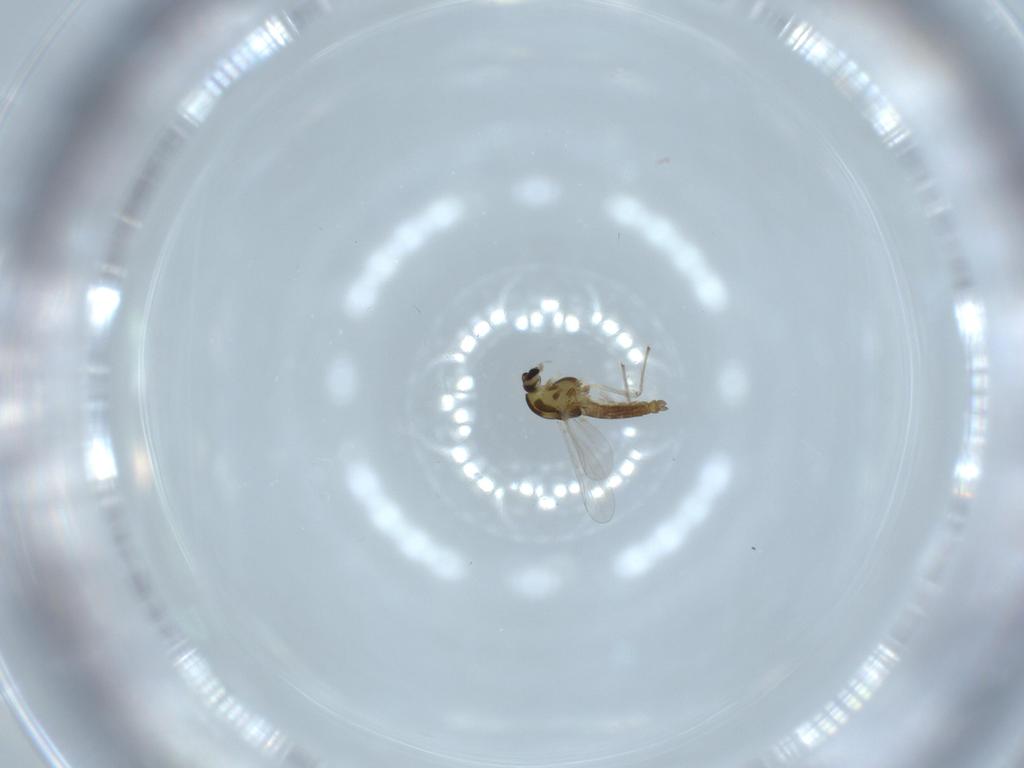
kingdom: Animalia
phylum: Arthropoda
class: Insecta
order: Diptera
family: Chironomidae
